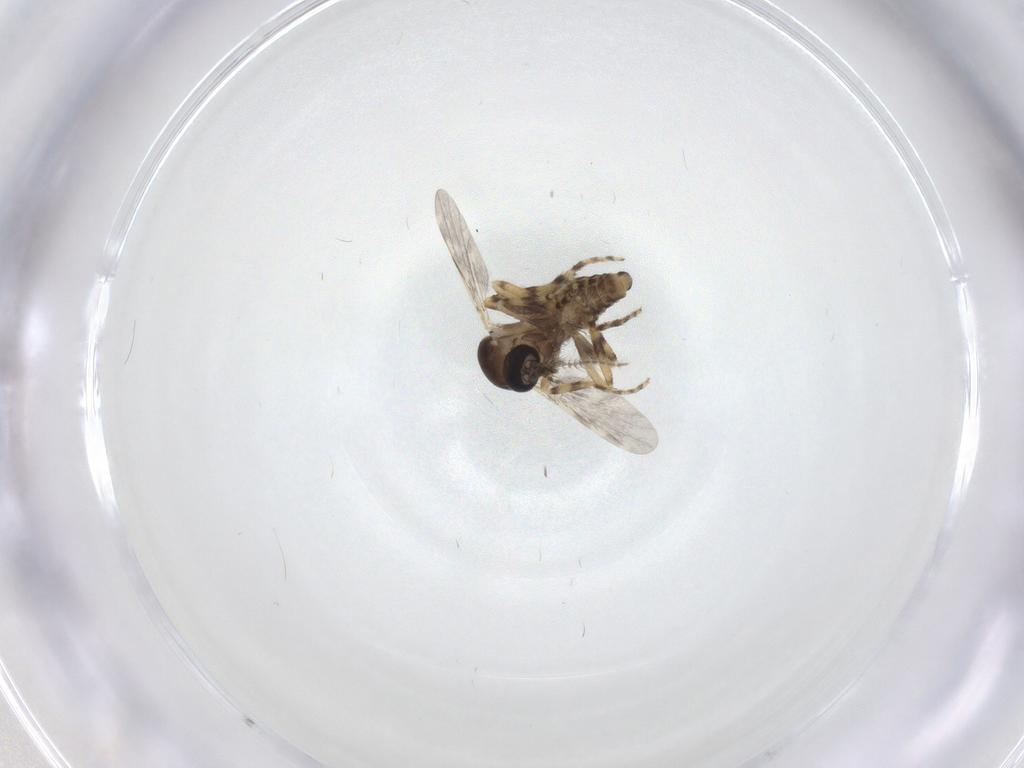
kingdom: Animalia
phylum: Arthropoda
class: Insecta
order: Diptera
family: Ceratopogonidae
